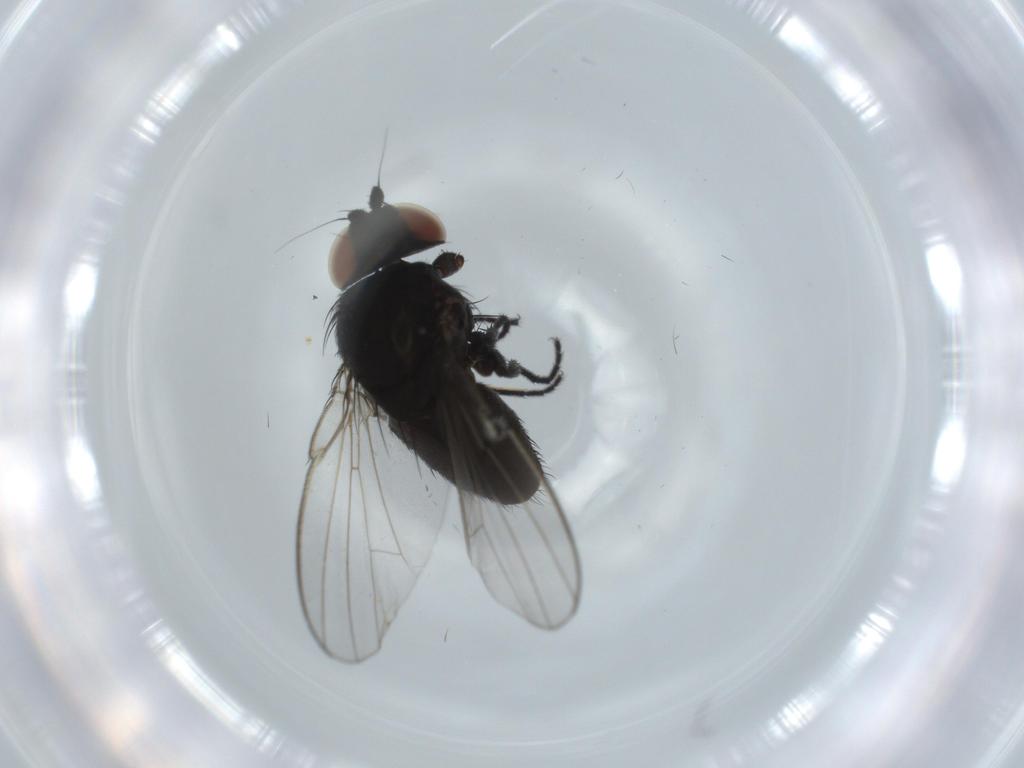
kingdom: Animalia
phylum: Arthropoda
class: Insecta
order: Diptera
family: Milichiidae
